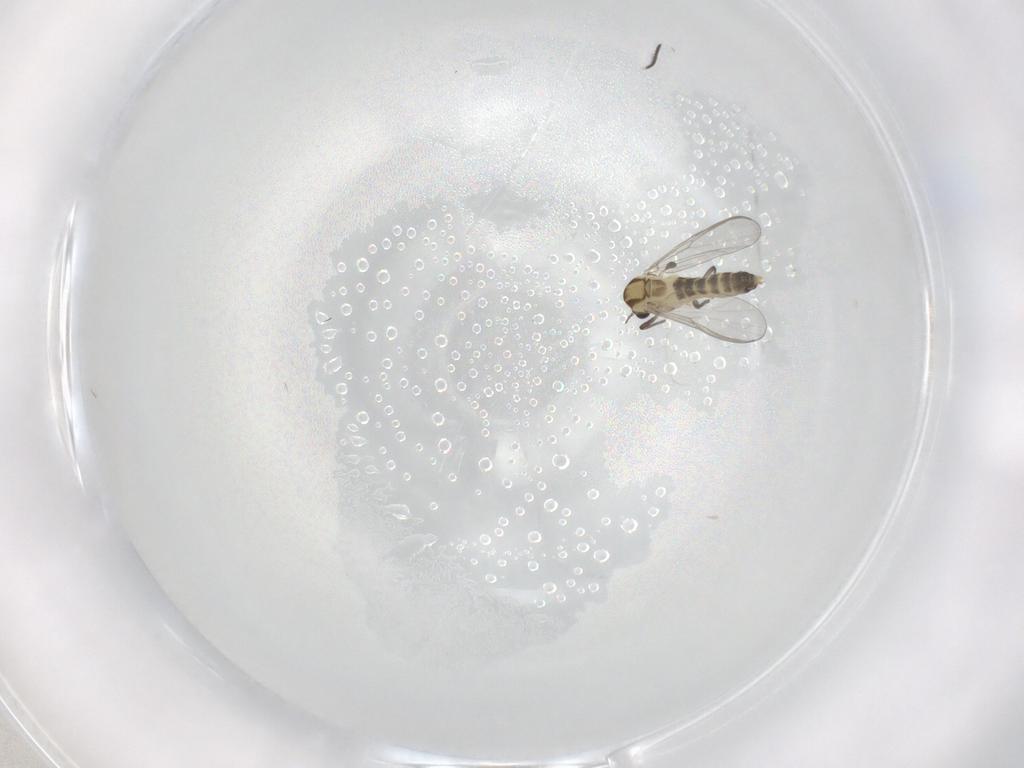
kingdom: Animalia
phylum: Arthropoda
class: Insecta
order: Diptera
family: Chironomidae
